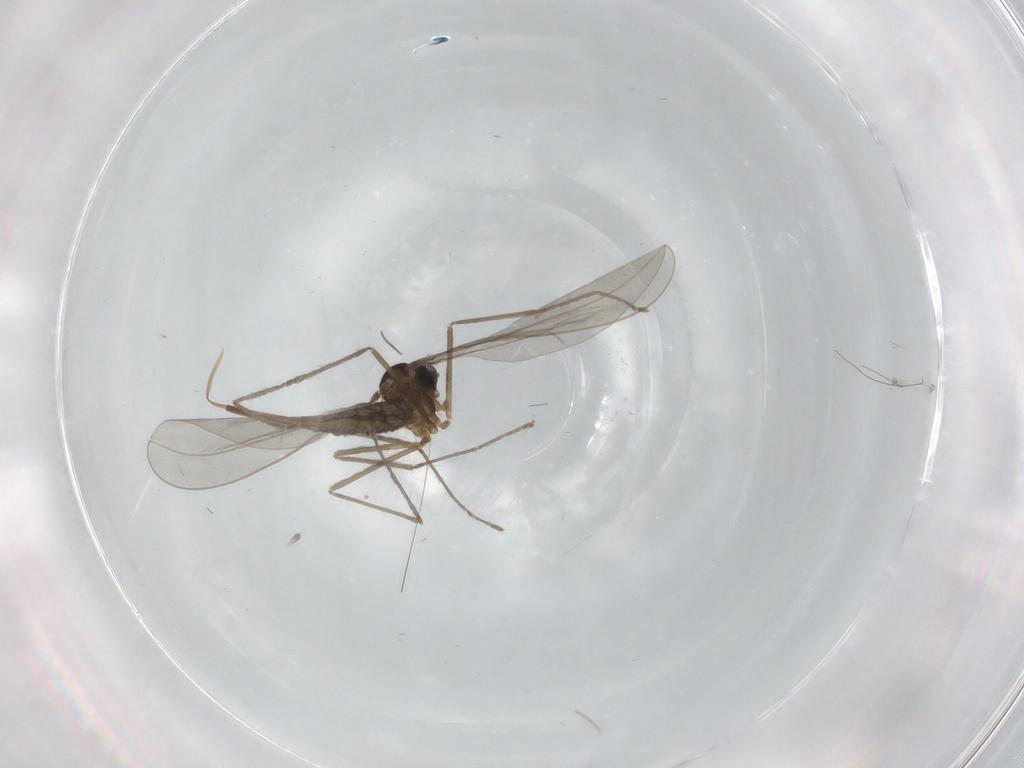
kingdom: Animalia
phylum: Arthropoda
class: Insecta
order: Diptera
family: Cecidomyiidae
